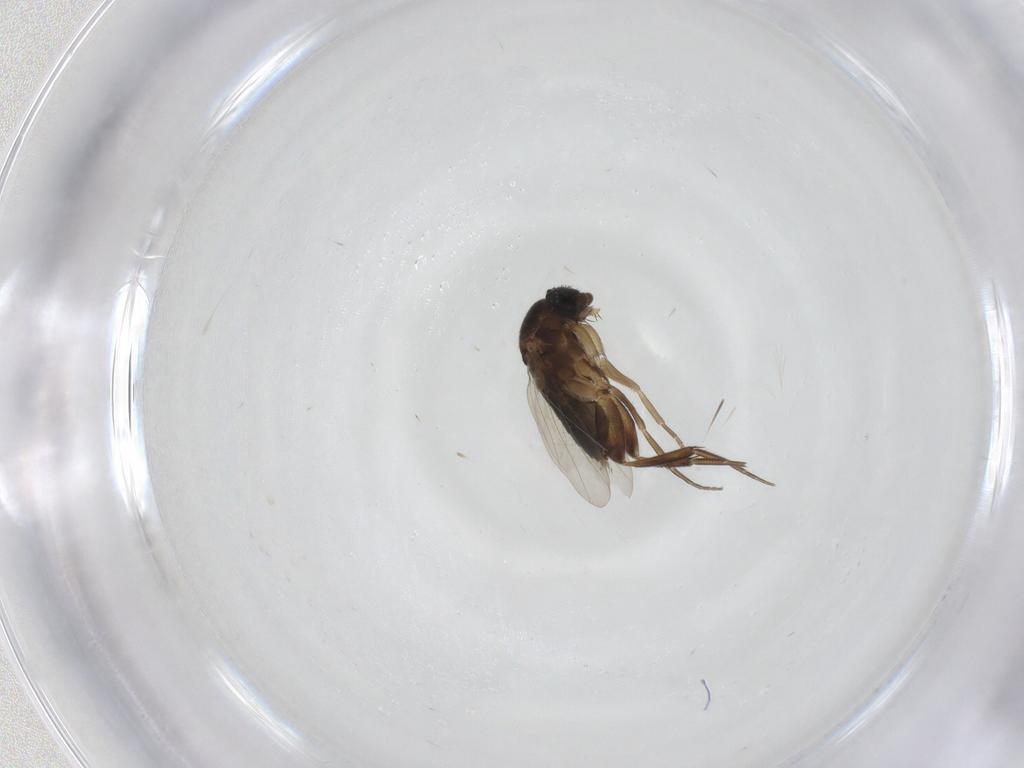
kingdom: Animalia
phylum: Arthropoda
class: Insecta
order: Diptera
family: Phoridae
